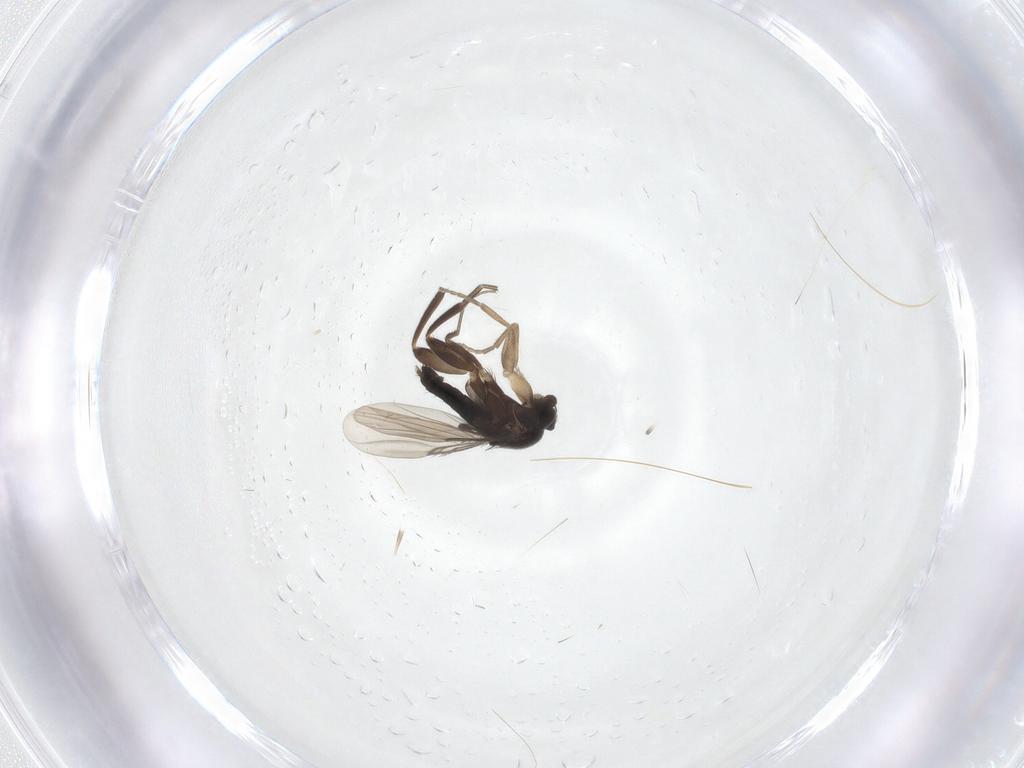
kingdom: Animalia
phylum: Arthropoda
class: Insecta
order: Diptera
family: Phoridae
